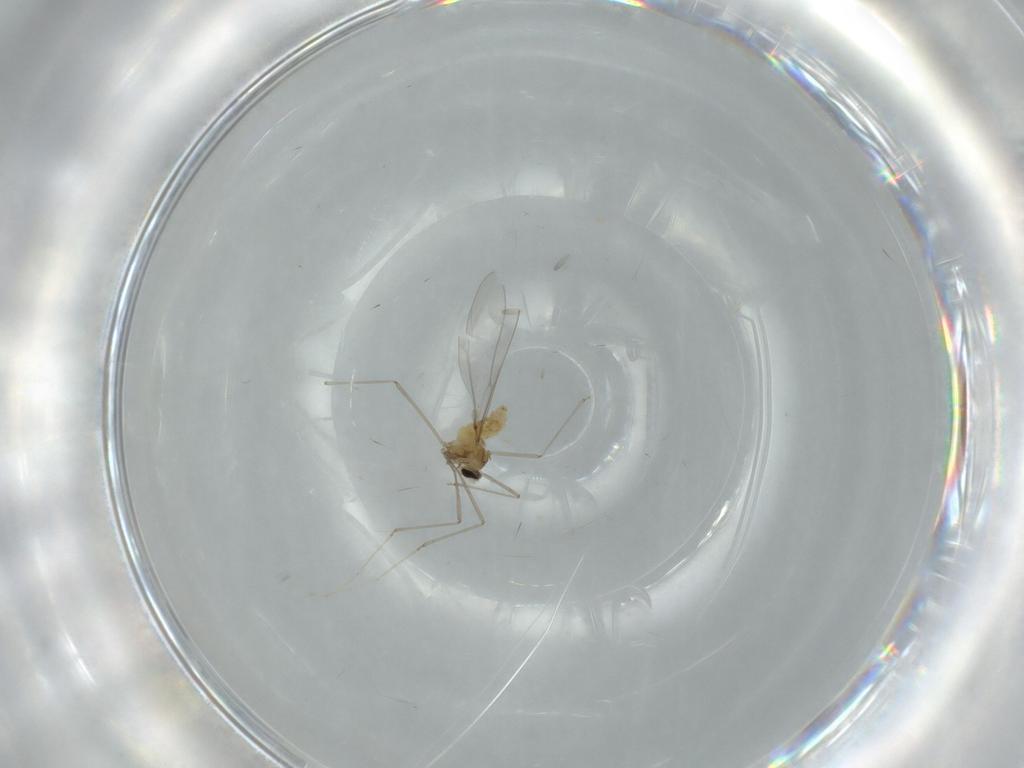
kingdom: Animalia
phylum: Arthropoda
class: Insecta
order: Diptera
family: Cecidomyiidae
